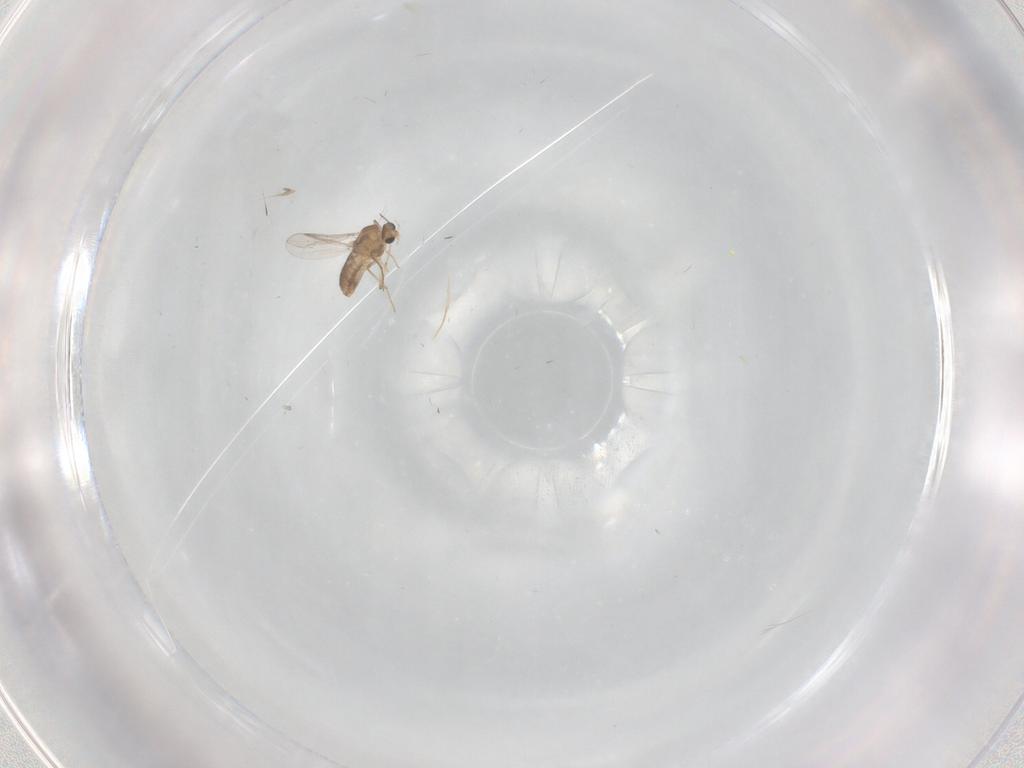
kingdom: Animalia
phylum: Arthropoda
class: Insecta
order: Diptera
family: Chironomidae
